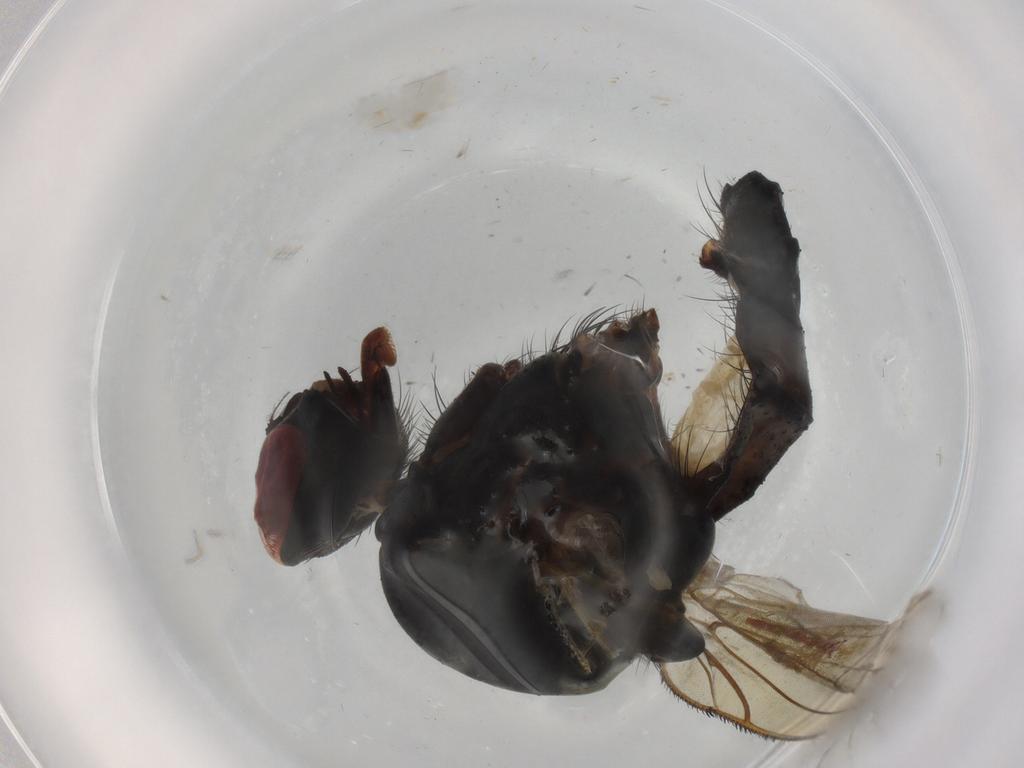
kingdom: Animalia
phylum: Arthropoda
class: Insecta
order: Diptera
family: Anthomyiidae
